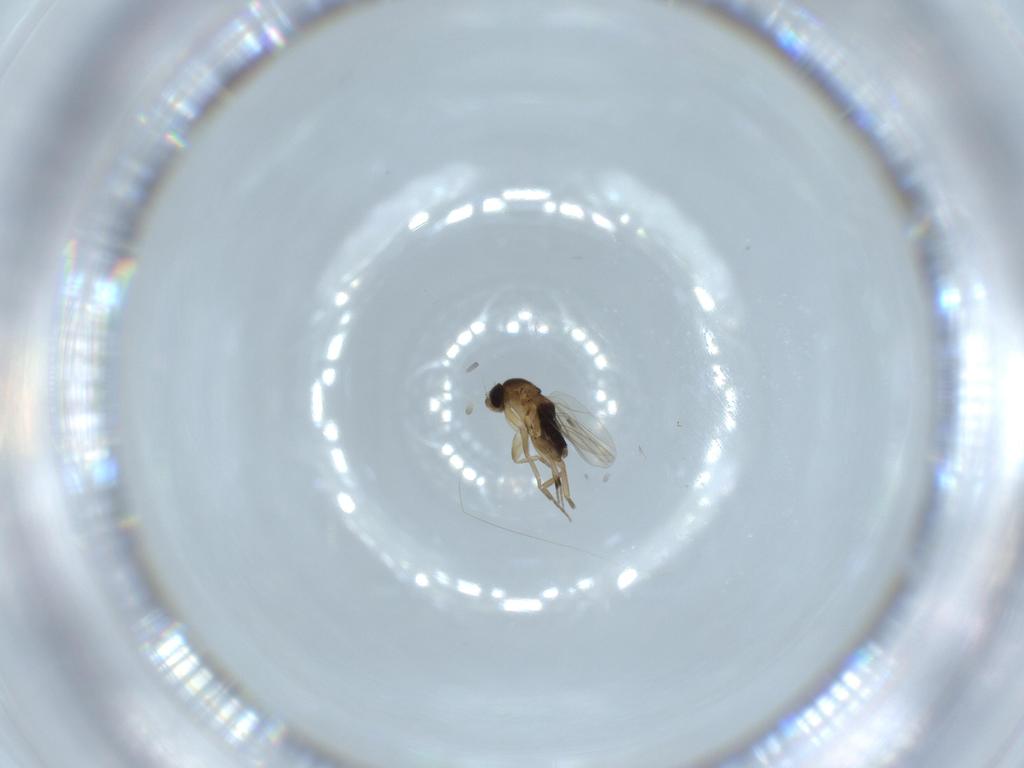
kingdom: Animalia
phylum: Arthropoda
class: Insecta
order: Diptera
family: Phoridae
